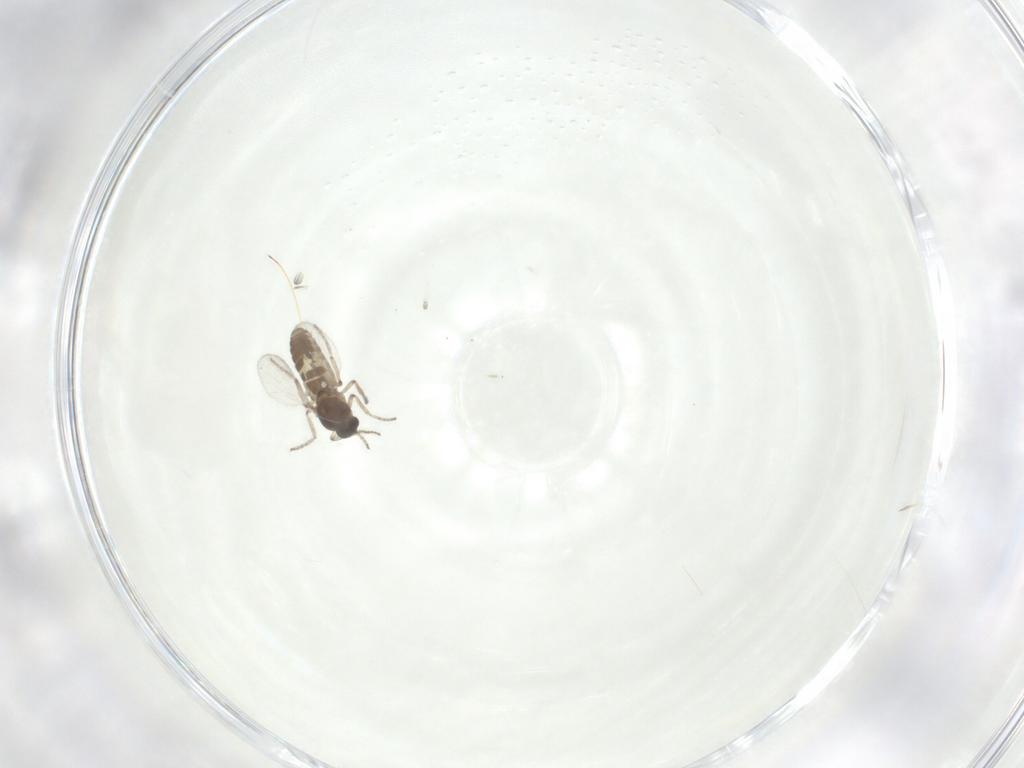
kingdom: Animalia
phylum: Arthropoda
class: Insecta
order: Diptera
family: Ceratopogonidae
